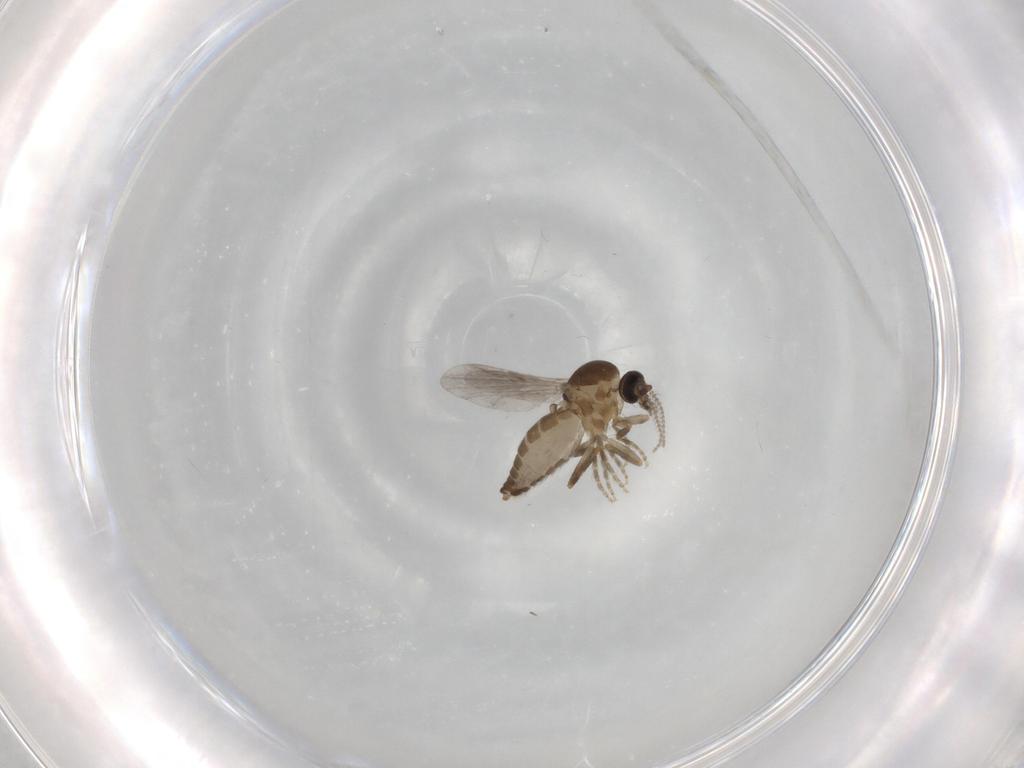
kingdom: Animalia
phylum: Arthropoda
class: Insecta
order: Diptera
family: Cecidomyiidae
